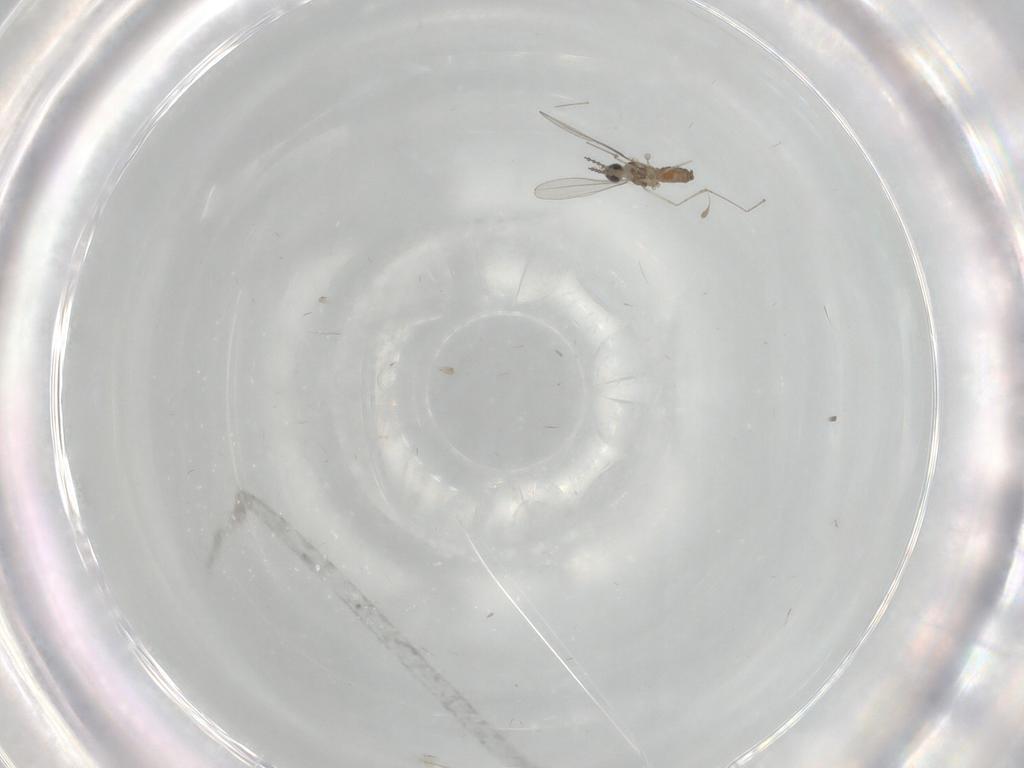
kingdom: Animalia
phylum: Arthropoda
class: Insecta
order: Diptera
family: Cecidomyiidae
